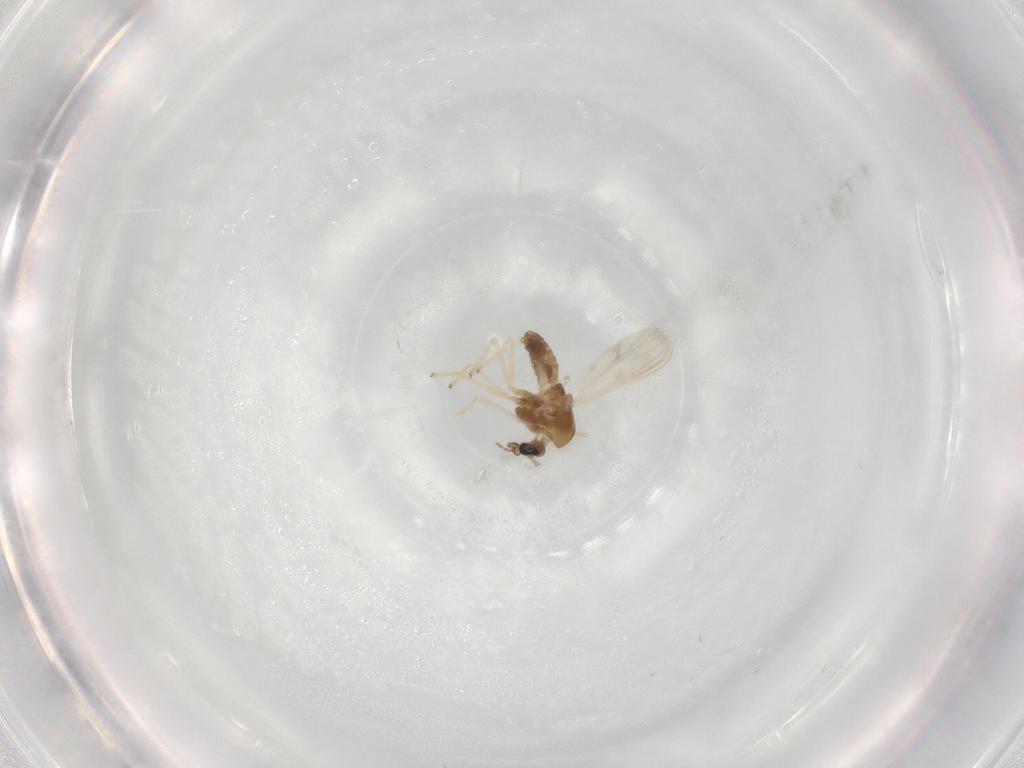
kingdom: Animalia
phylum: Arthropoda
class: Insecta
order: Diptera
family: Chironomidae
